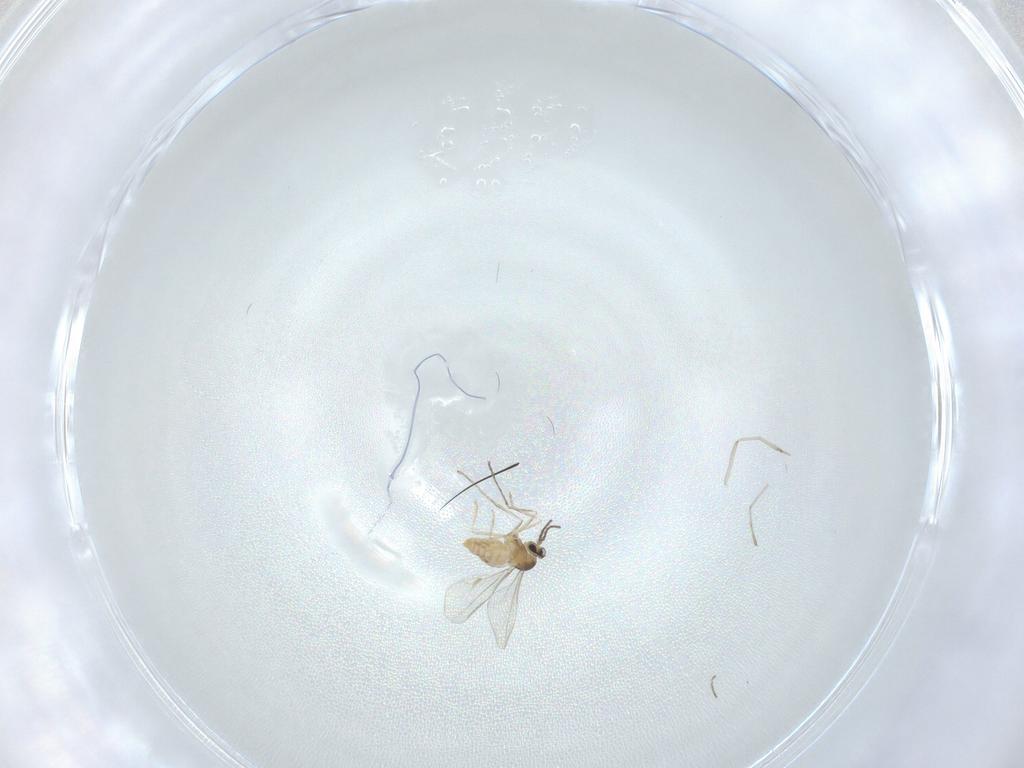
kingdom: Animalia
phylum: Arthropoda
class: Insecta
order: Diptera
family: Cecidomyiidae
